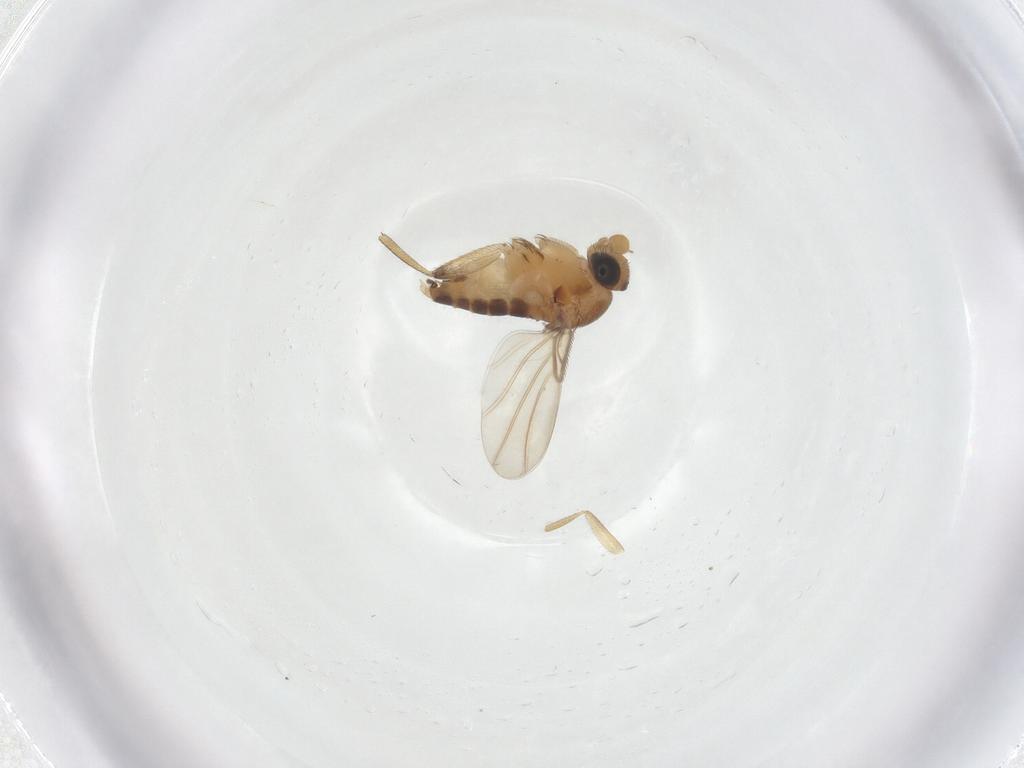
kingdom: Animalia
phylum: Arthropoda
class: Insecta
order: Diptera
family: Phoridae
